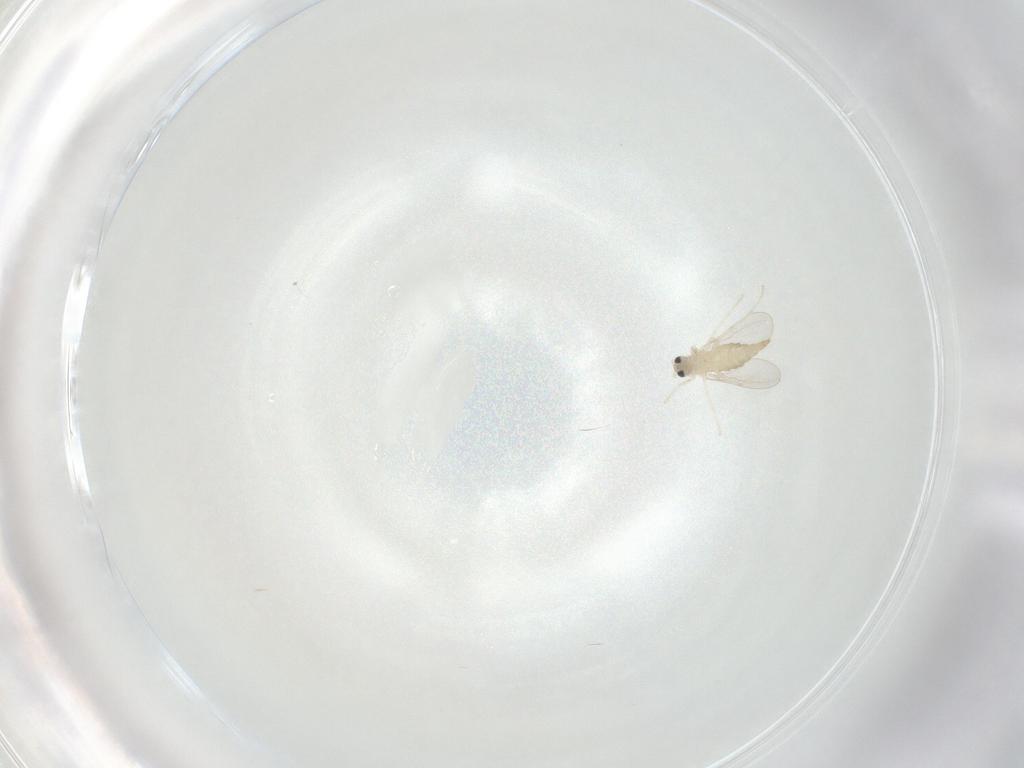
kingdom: Animalia
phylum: Arthropoda
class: Insecta
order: Diptera
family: Cecidomyiidae
